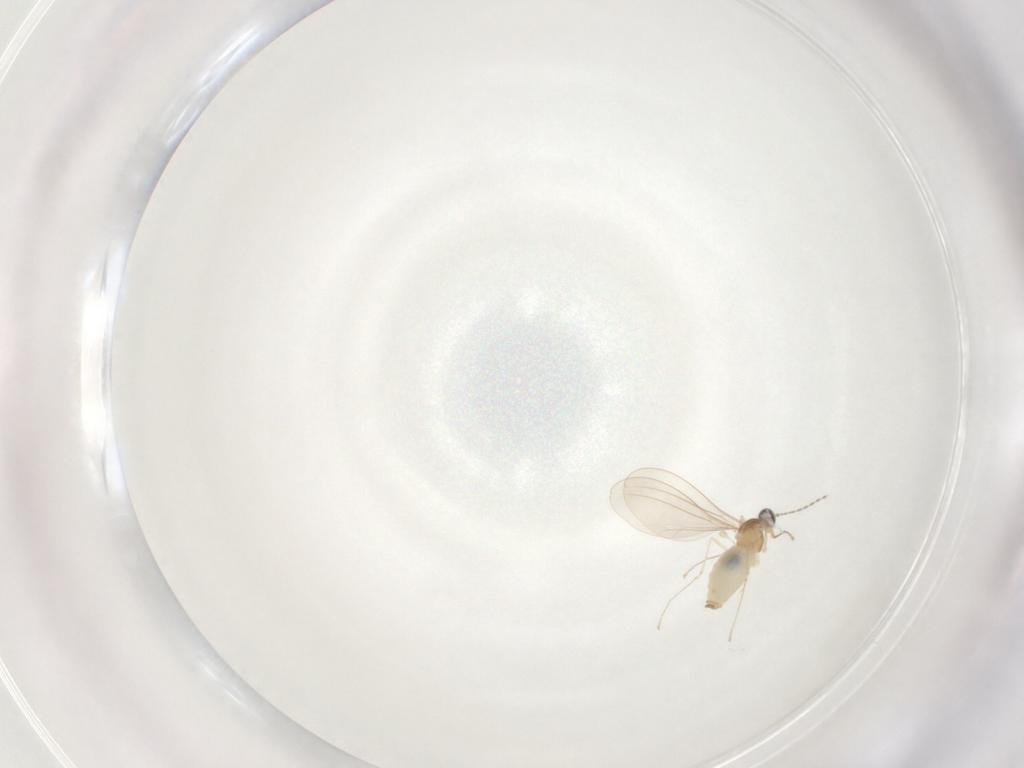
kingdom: Animalia
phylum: Arthropoda
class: Insecta
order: Diptera
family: Cecidomyiidae
